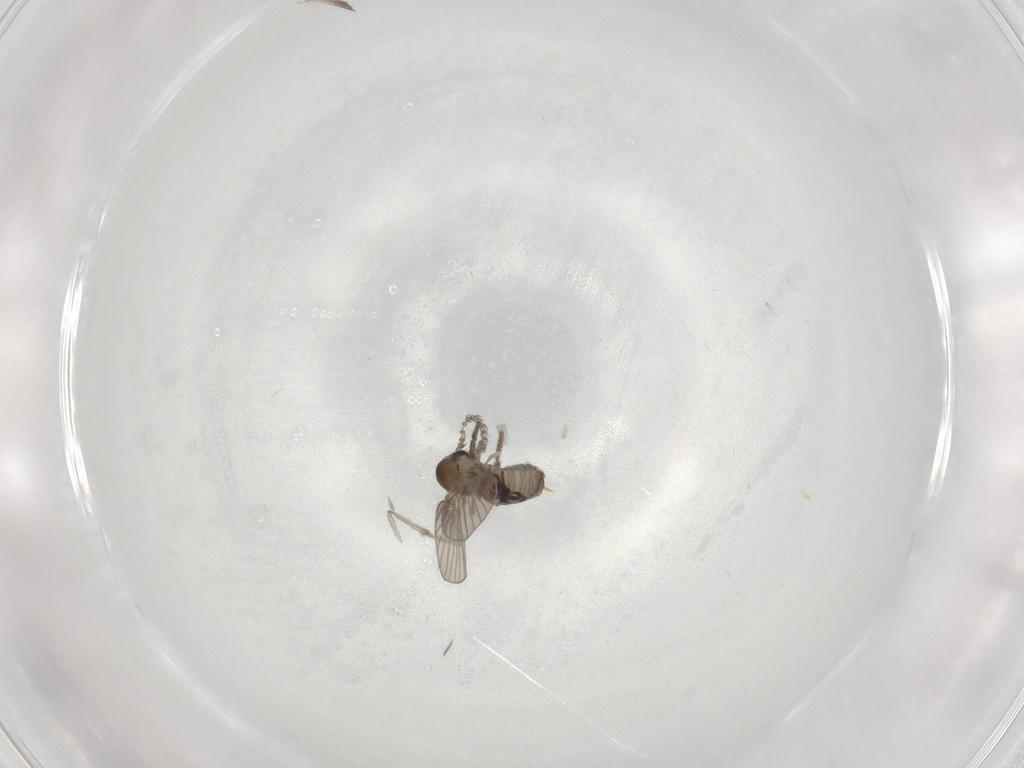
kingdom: Animalia
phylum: Arthropoda
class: Insecta
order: Diptera
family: Psychodidae
